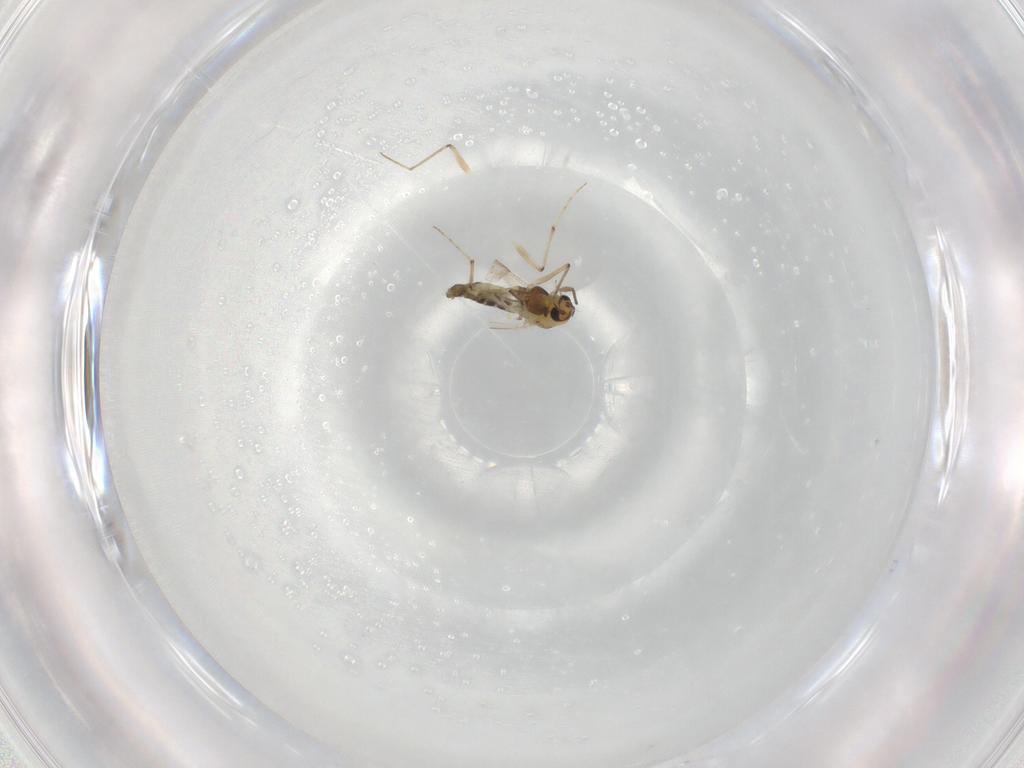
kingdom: Animalia
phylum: Arthropoda
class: Insecta
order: Diptera
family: Chironomidae
